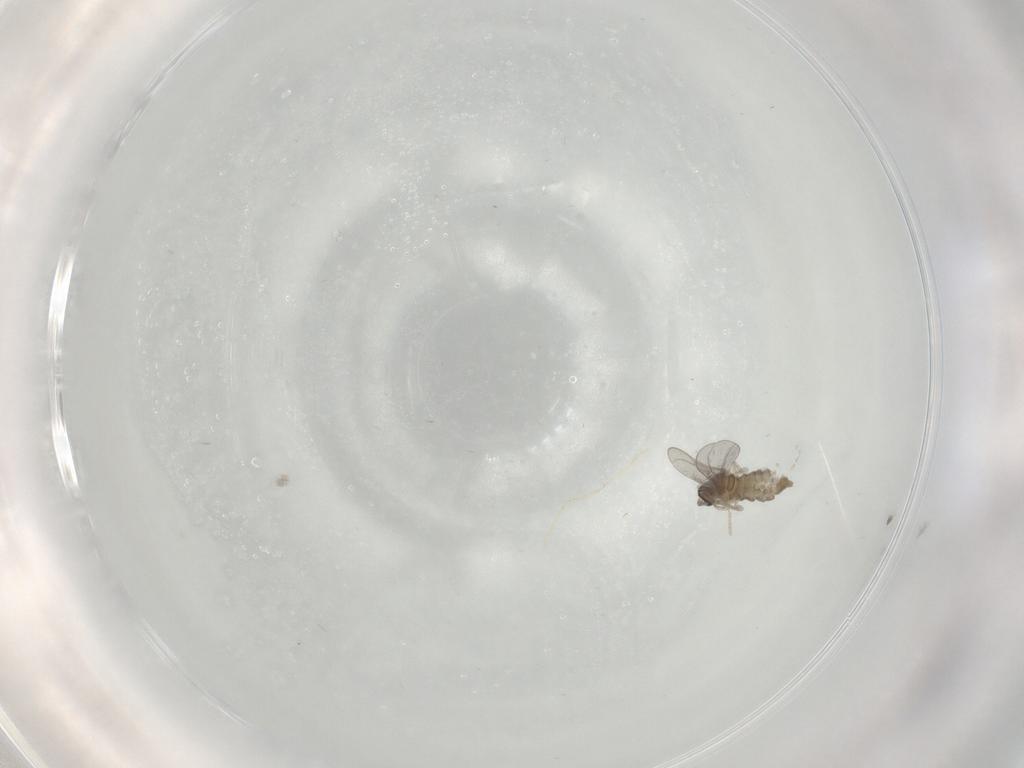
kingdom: Animalia
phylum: Arthropoda
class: Insecta
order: Diptera
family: Cecidomyiidae
